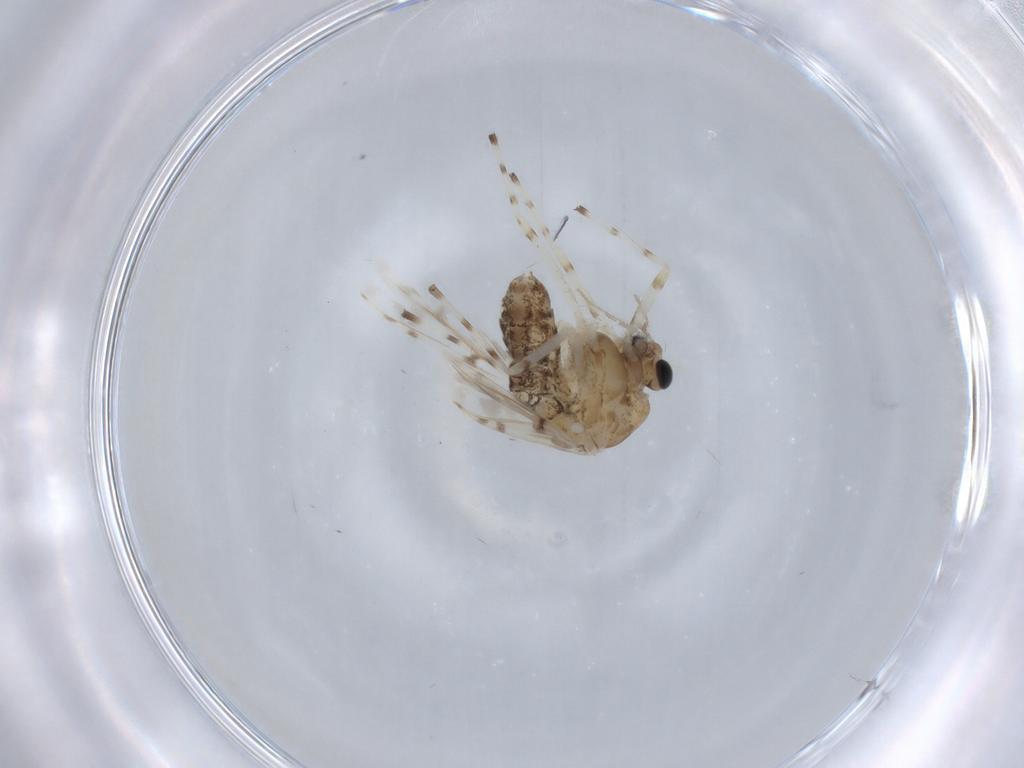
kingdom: Animalia
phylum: Arthropoda
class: Insecta
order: Diptera
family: Chironomidae
